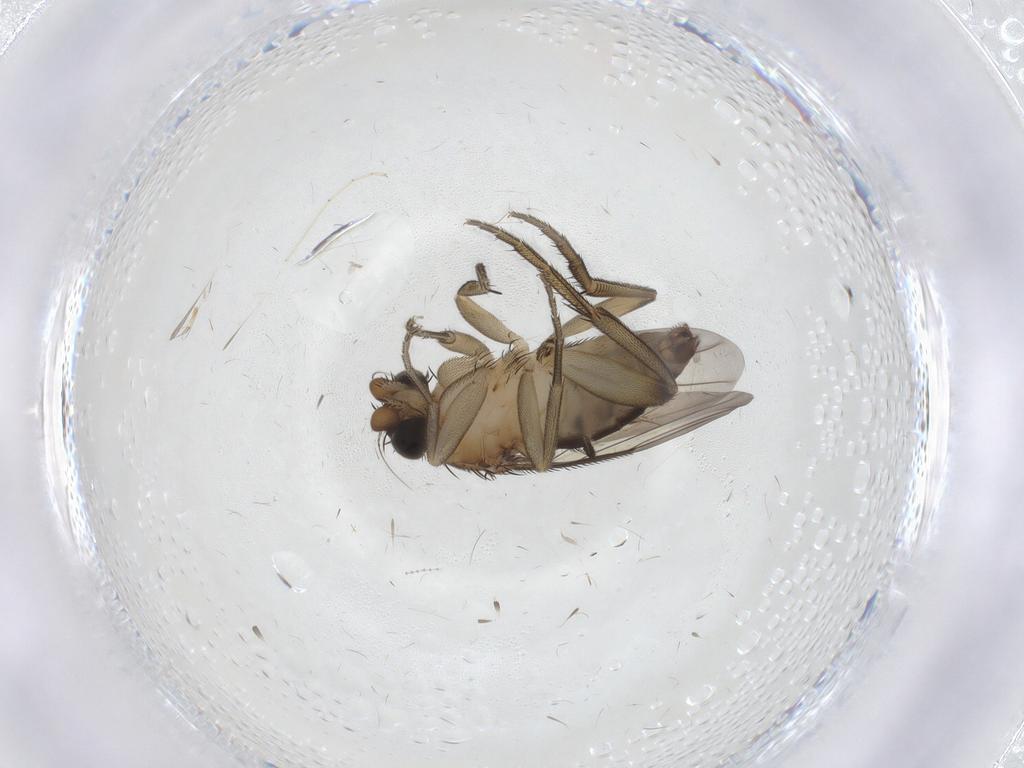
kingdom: Animalia
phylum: Arthropoda
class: Insecta
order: Diptera
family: Phoridae
